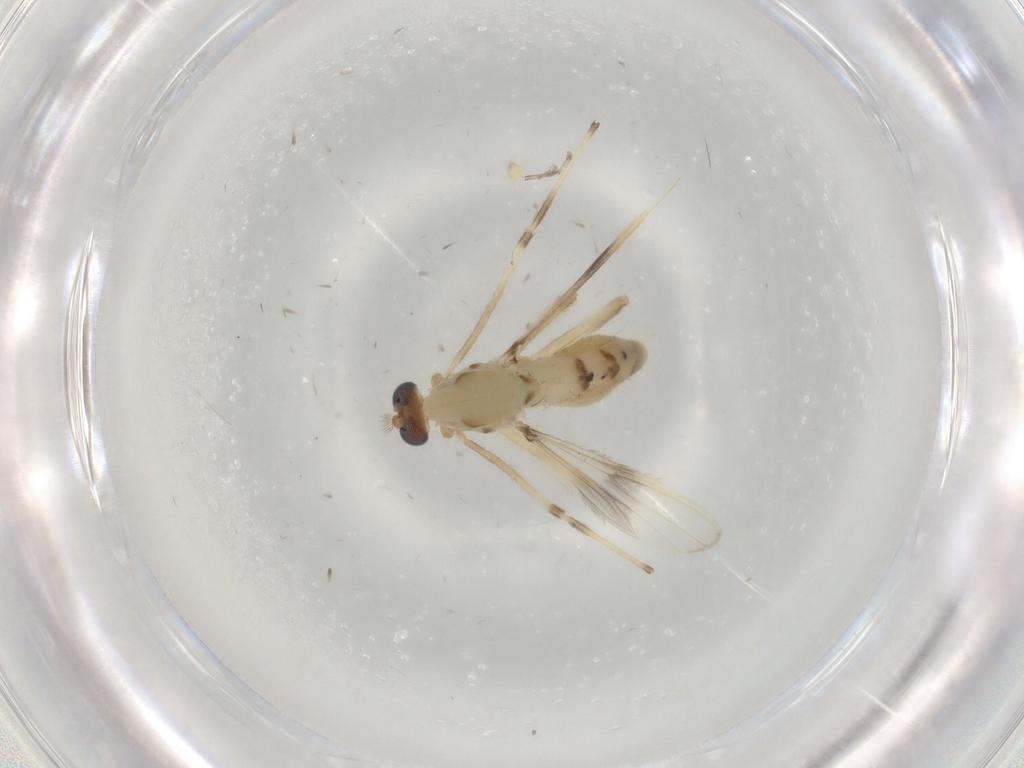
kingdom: Animalia
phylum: Arthropoda
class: Insecta
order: Diptera
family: Chironomidae
